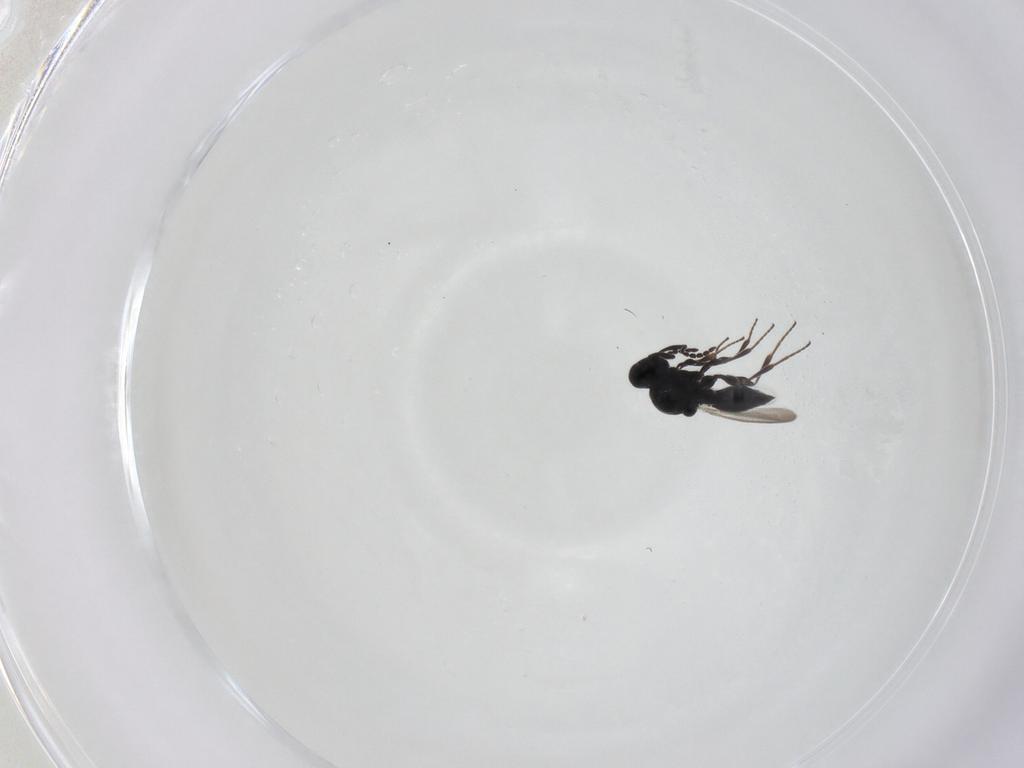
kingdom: Animalia
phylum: Arthropoda
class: Insecta
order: Hymenoptera
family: Platygastridae
